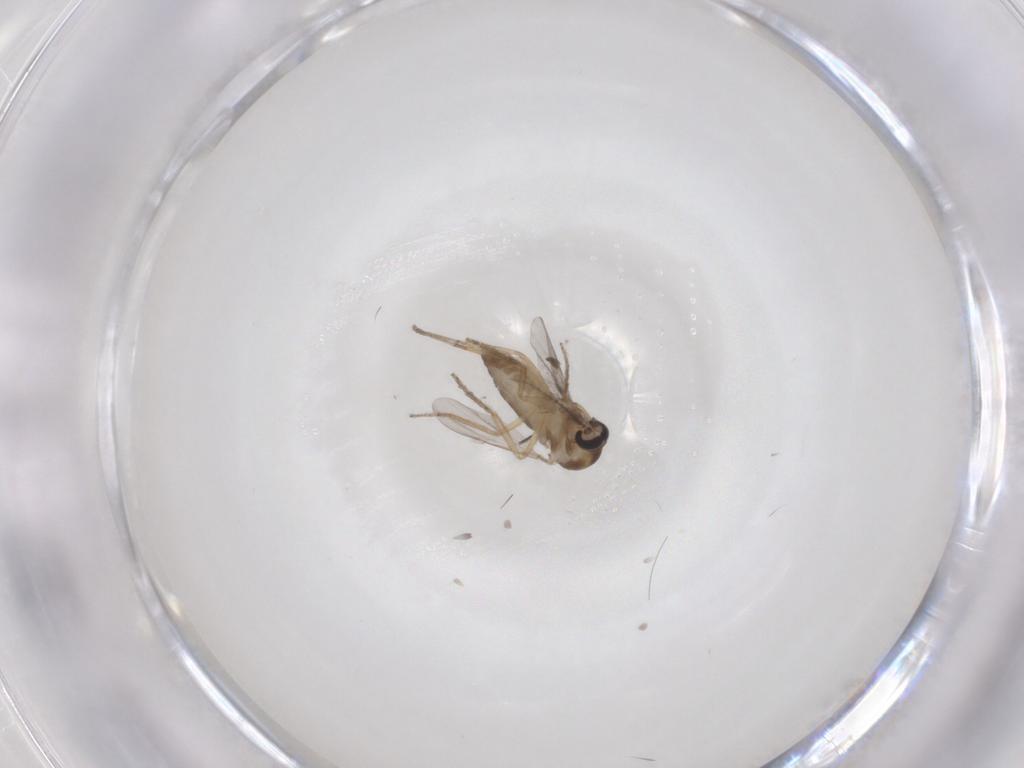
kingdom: Animalia
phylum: Arthropoda
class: Insecta
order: Diptera
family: Ceratopogonidae
